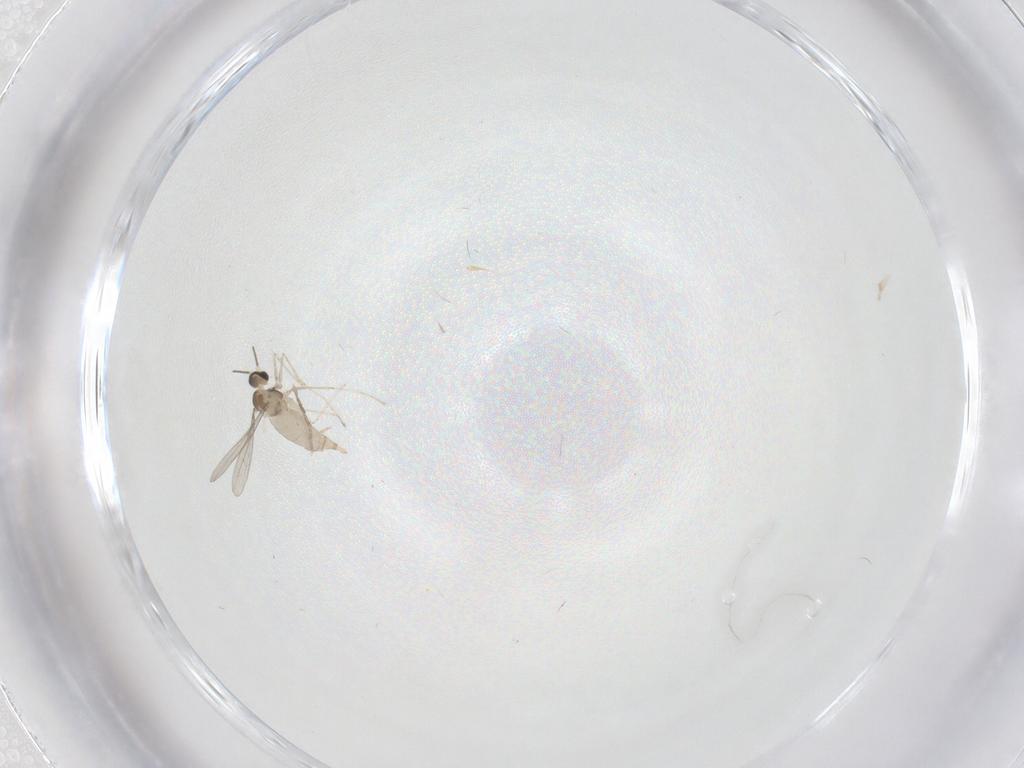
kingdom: Animalia
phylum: Arthropoda
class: Insecta
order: Diptera
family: Cecidomyiidae
